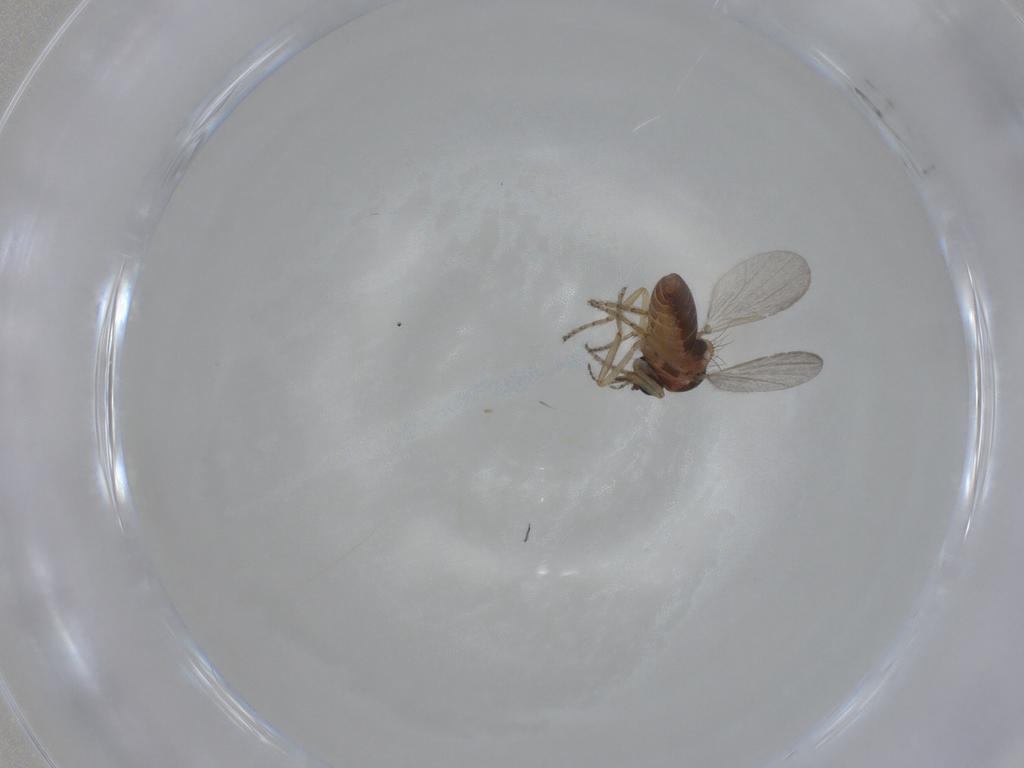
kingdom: Animalia
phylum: Arthropoda
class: Insecta
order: Diptera
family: Ceratopogonidae
